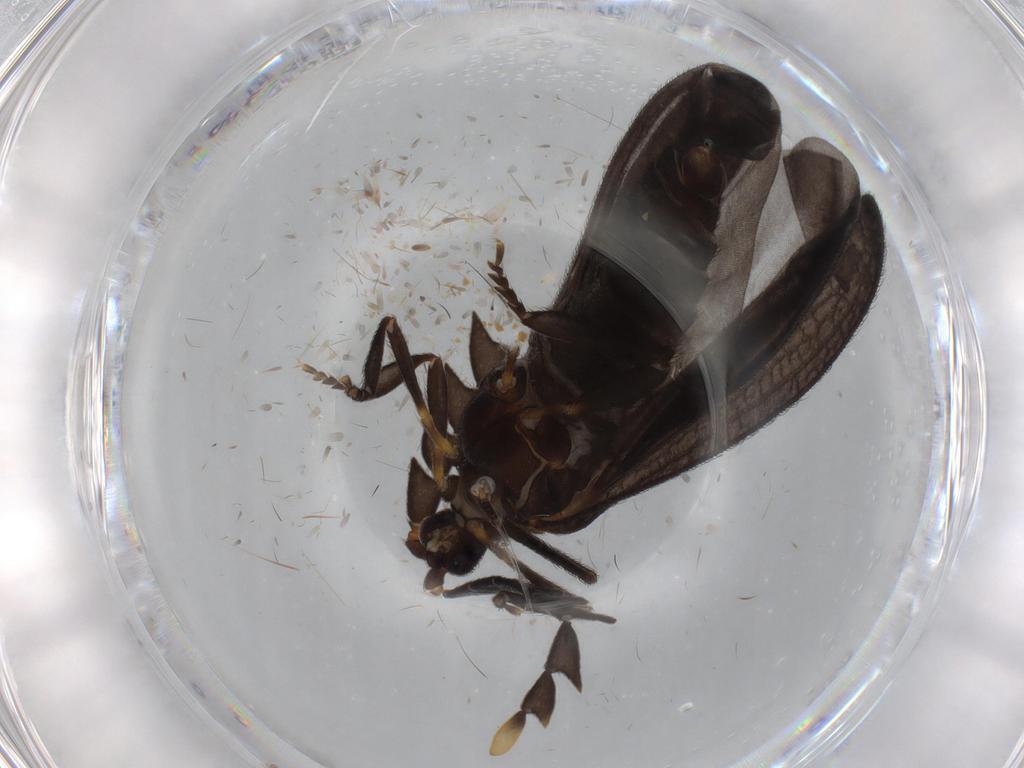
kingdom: Animalia
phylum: Arthropoda
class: Insecta
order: Coleoptera
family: Lycidae
